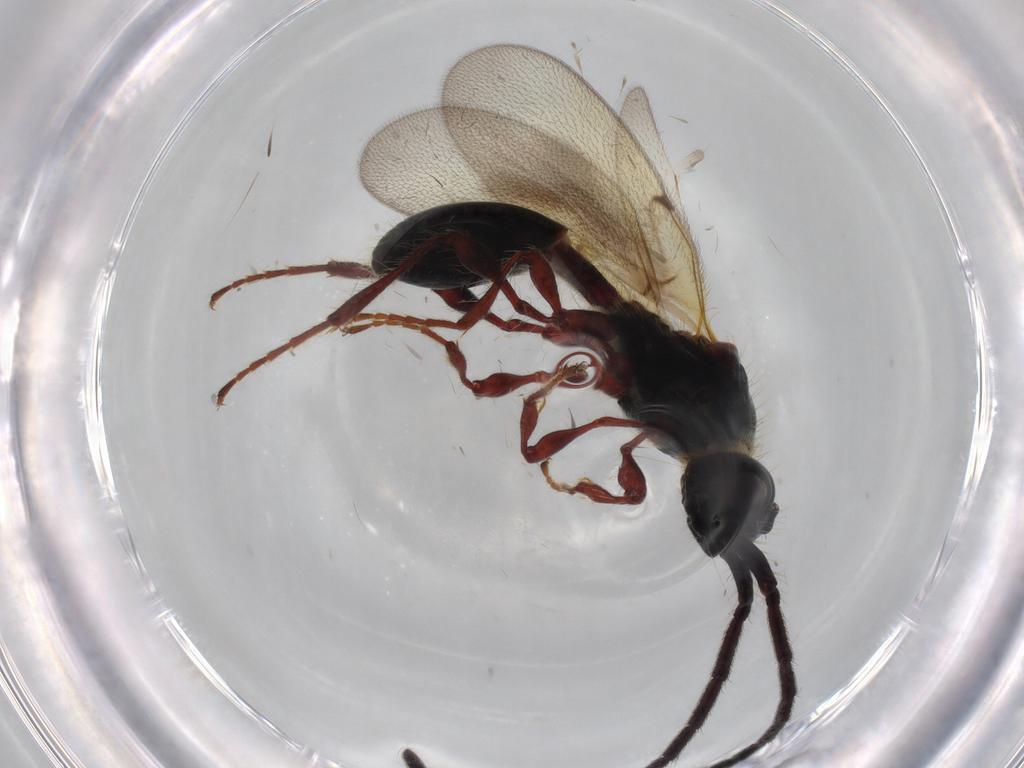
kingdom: Animalia
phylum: Arthropoda
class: Insecta
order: Hymenoptera
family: Diapriidae
